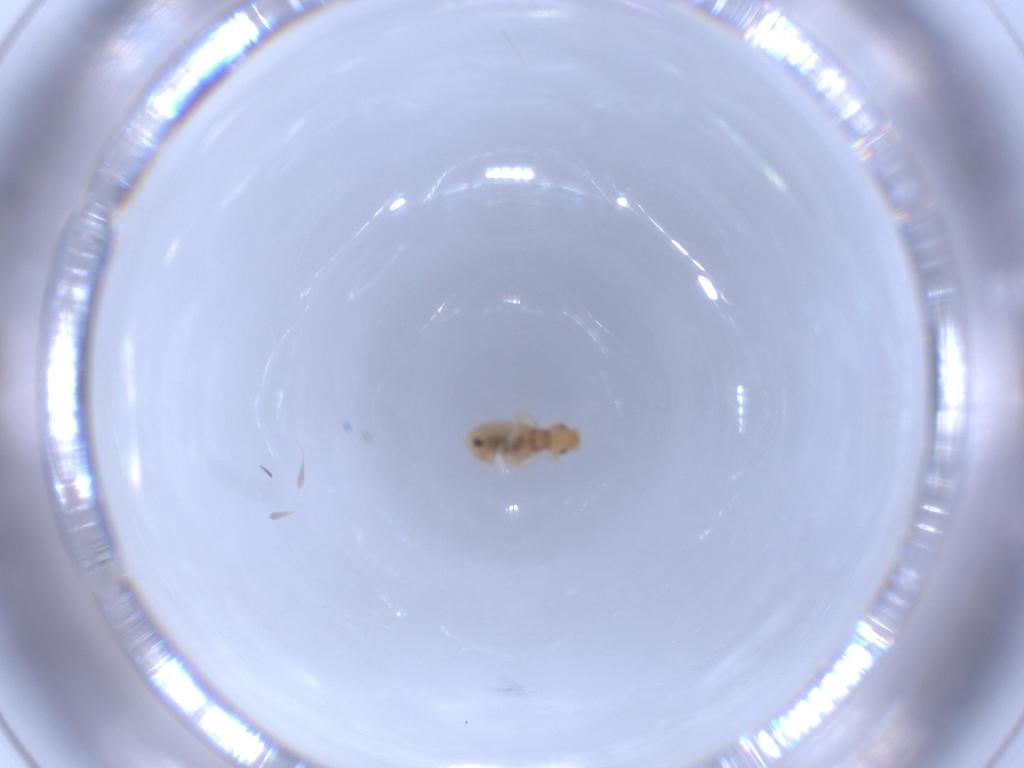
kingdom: Animalia
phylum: Arthropoda
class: Insecta
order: Psocodea
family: Liposcelididae
